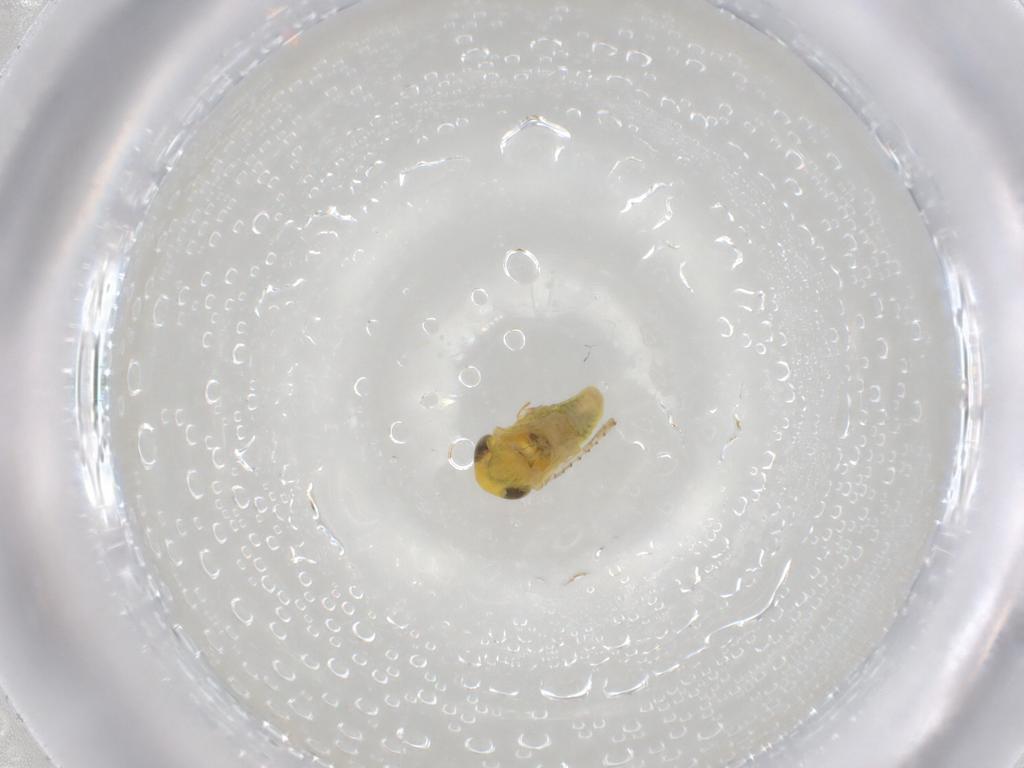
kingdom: Animalia
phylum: Arthropoda
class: Insecta
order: Hemiptera
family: Cicadellidae
